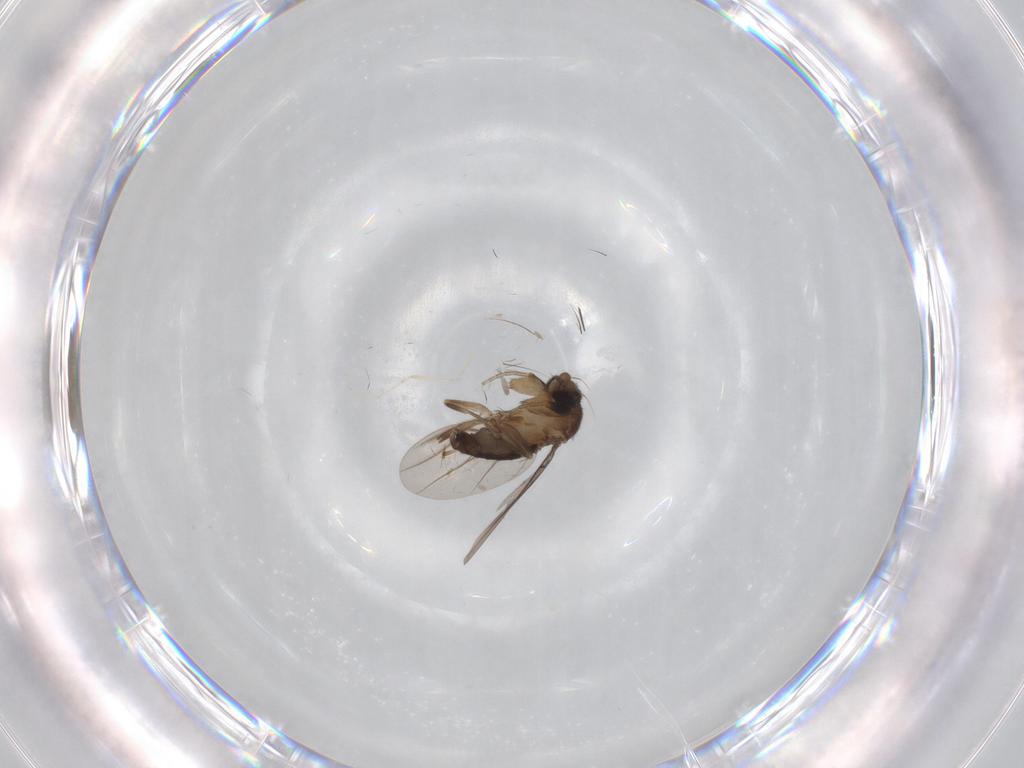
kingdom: Animalia
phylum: Arthropoda
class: Insecta
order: Diptera
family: Phoridae
